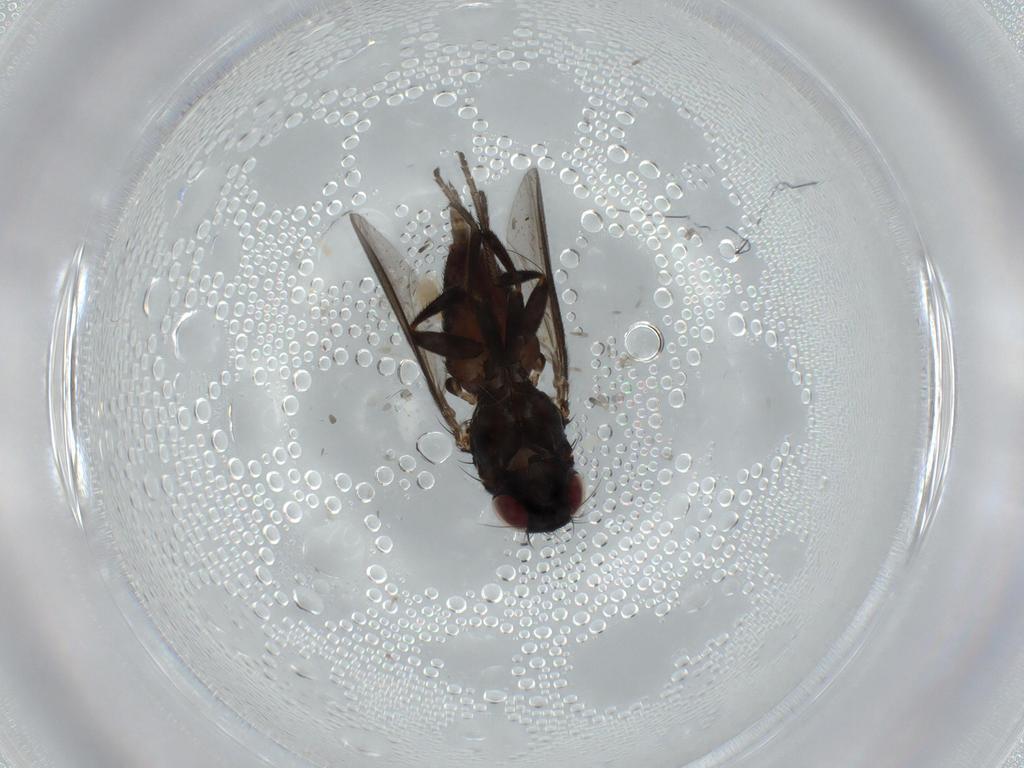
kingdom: Animalia
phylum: Arthropoda
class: Insecta
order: Diptera
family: Milichiidae
